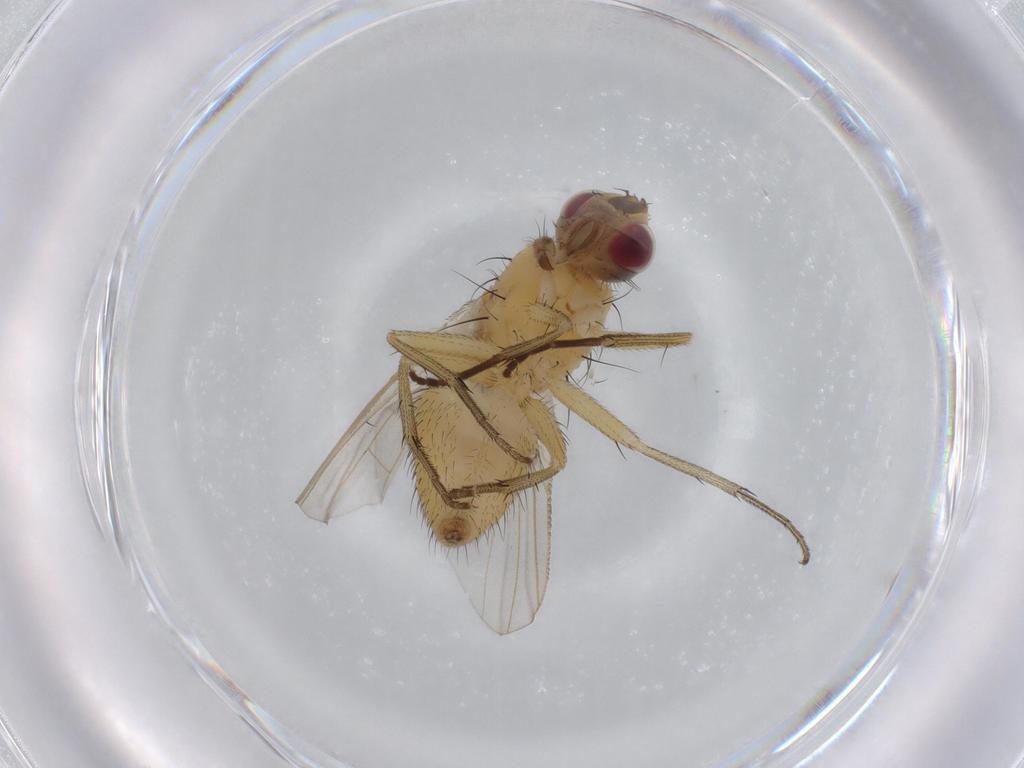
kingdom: Animalia
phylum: Arthropoda
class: Insecta
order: Diptera
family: Muscidae
